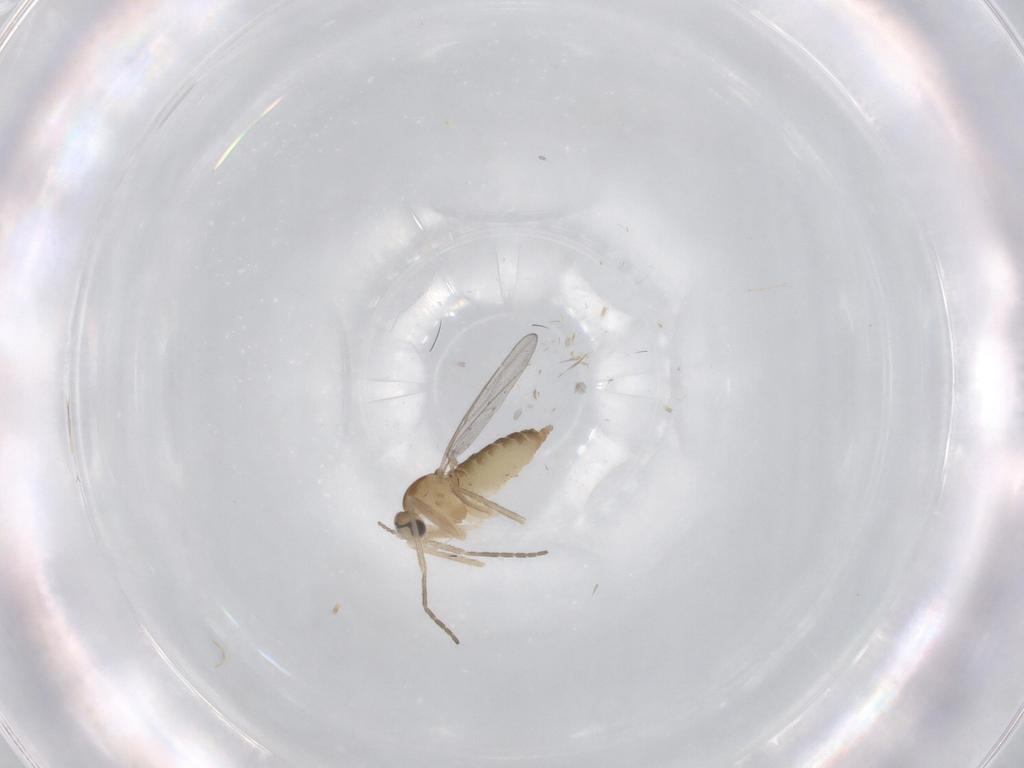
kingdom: Animalia
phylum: Arthropoda
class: Insecta
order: Diptera
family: Cecidomyiidae
